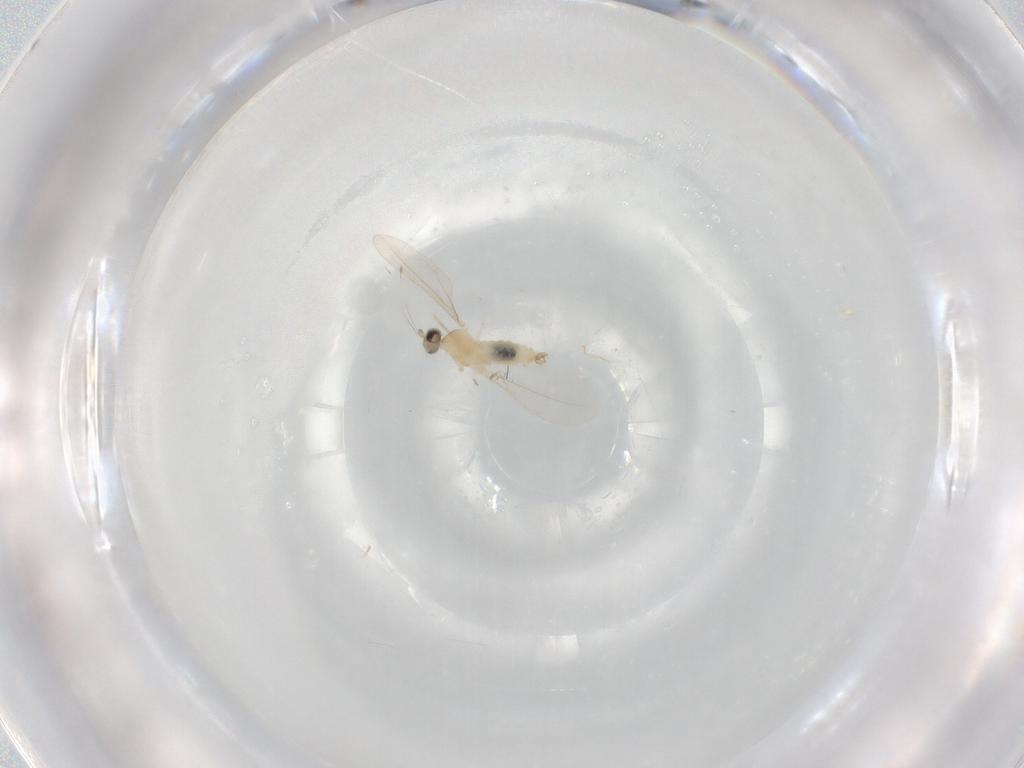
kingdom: Animalia
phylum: Arthropoda
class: Insecta
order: Diptera
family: Cecidomyiidae
